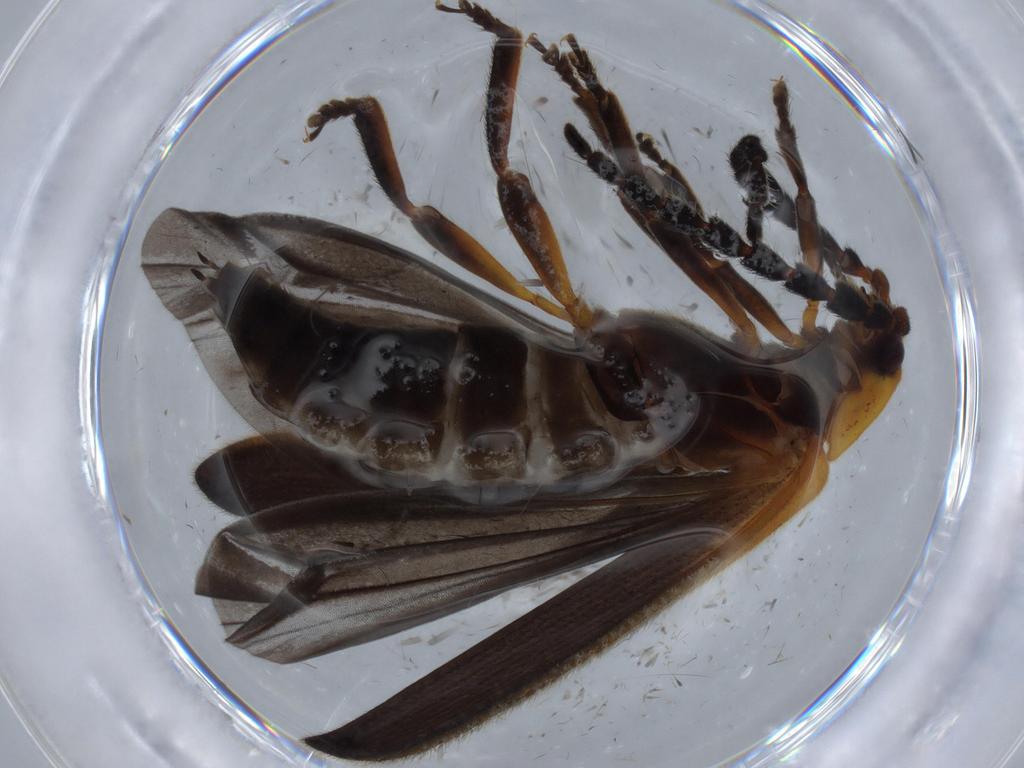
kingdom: Animalia
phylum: Arthropoda
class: Insecta
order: Coleoptera
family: Lycidae
